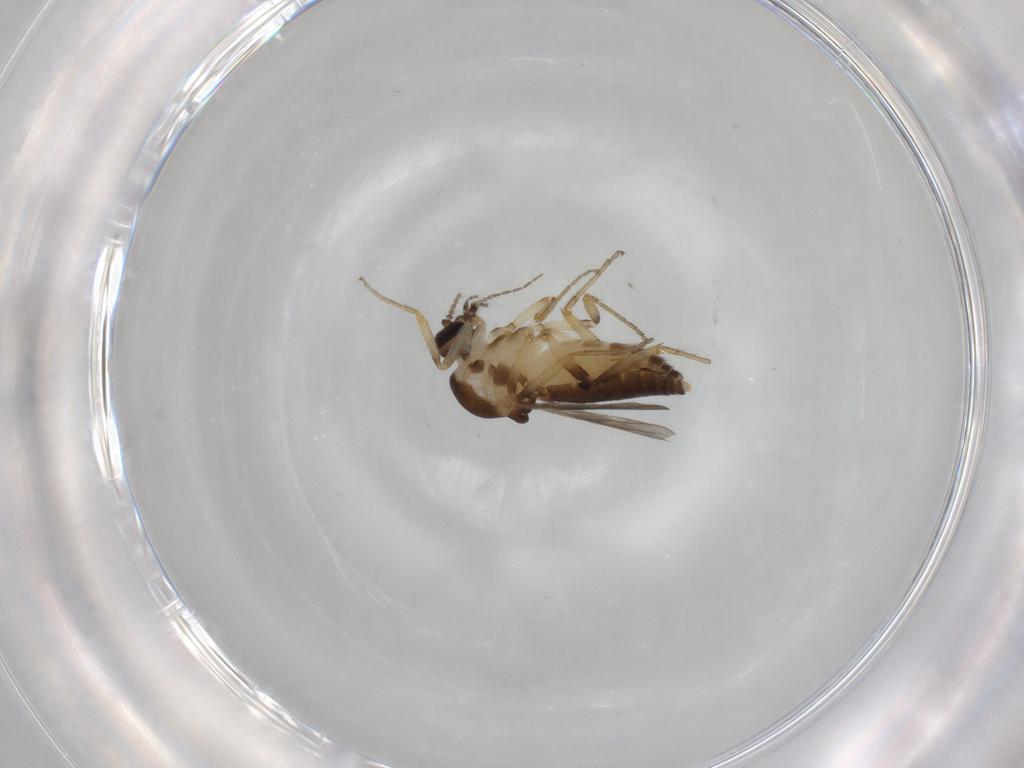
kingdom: Animalia
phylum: Arthropoda
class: Insecta
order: Diptera
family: Ceratopogonidae
